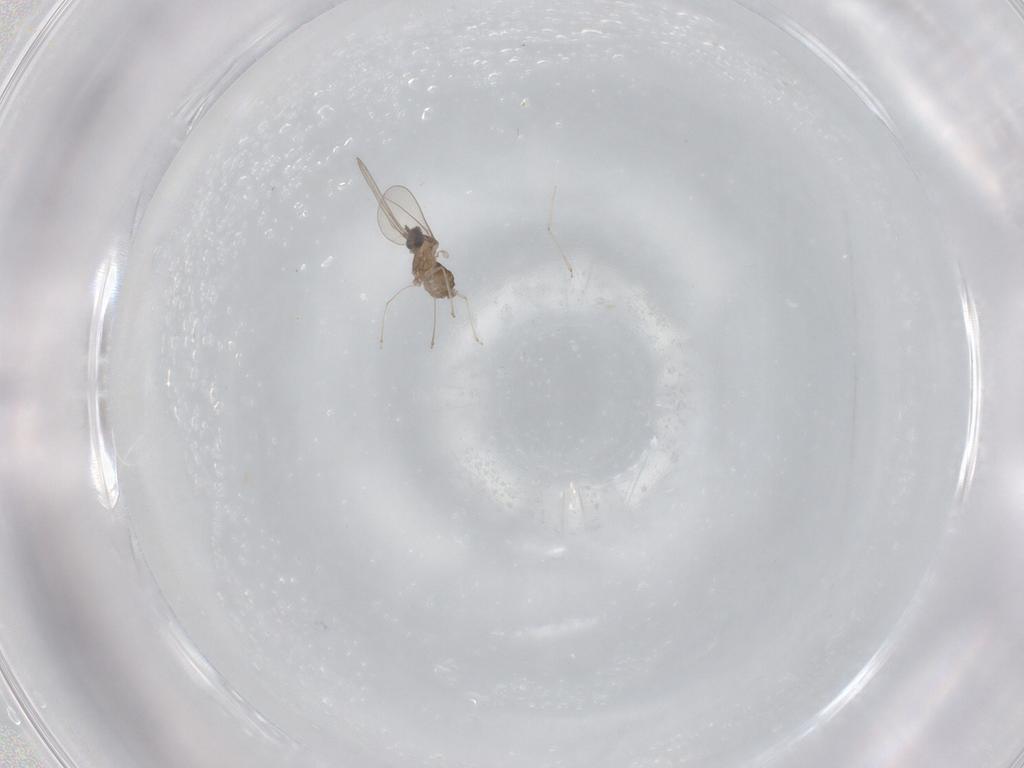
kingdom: Animalia
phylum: Arthropoda
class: Insecta
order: Diptera
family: Cecidomyiidae
